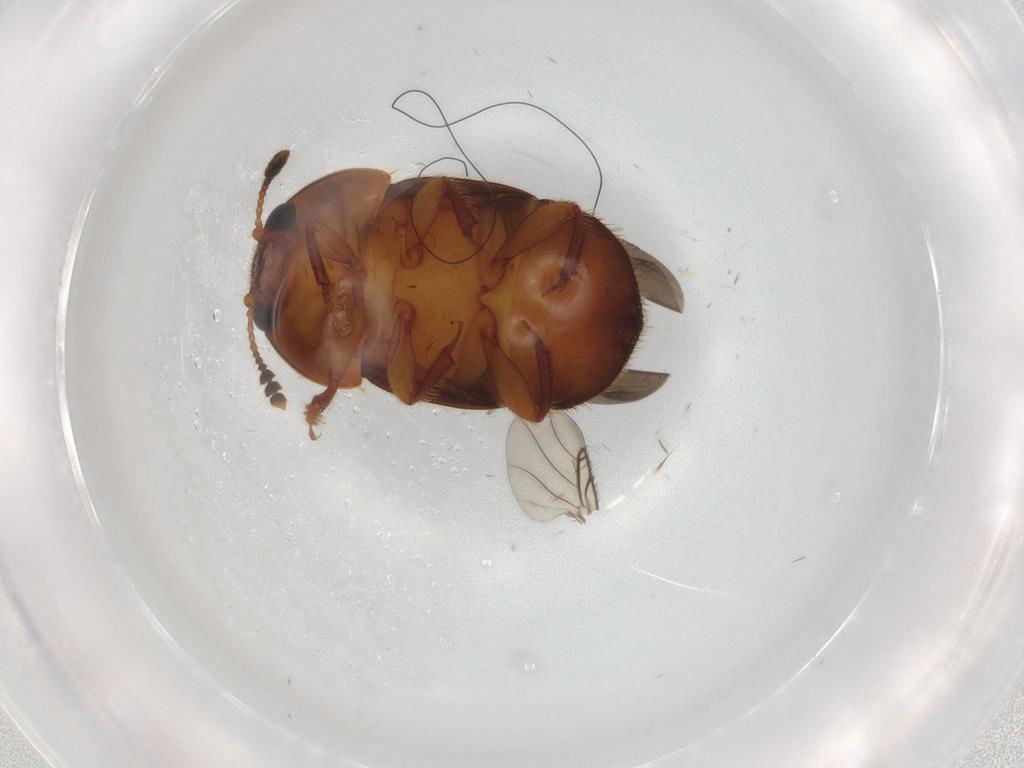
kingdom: Animalia
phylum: Arthropoda
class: Insecta
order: Coleoptera
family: Nitidulidae
